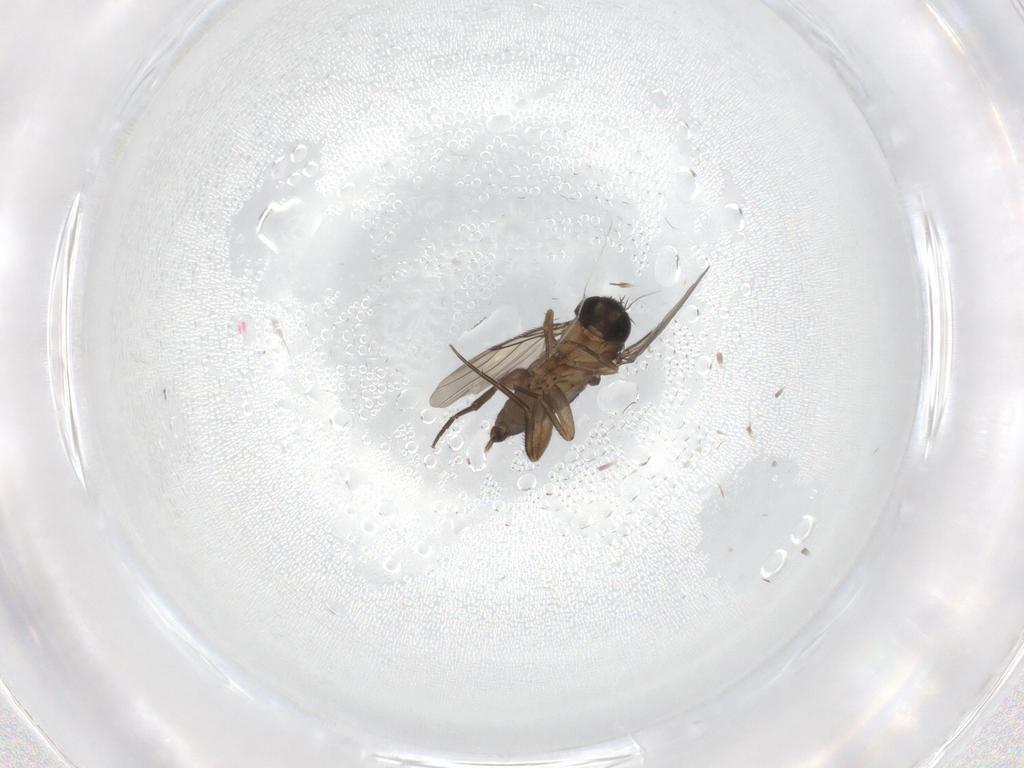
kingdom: Animalia
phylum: Arthropoda
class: Insecta
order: Diptera
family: Phoridae
